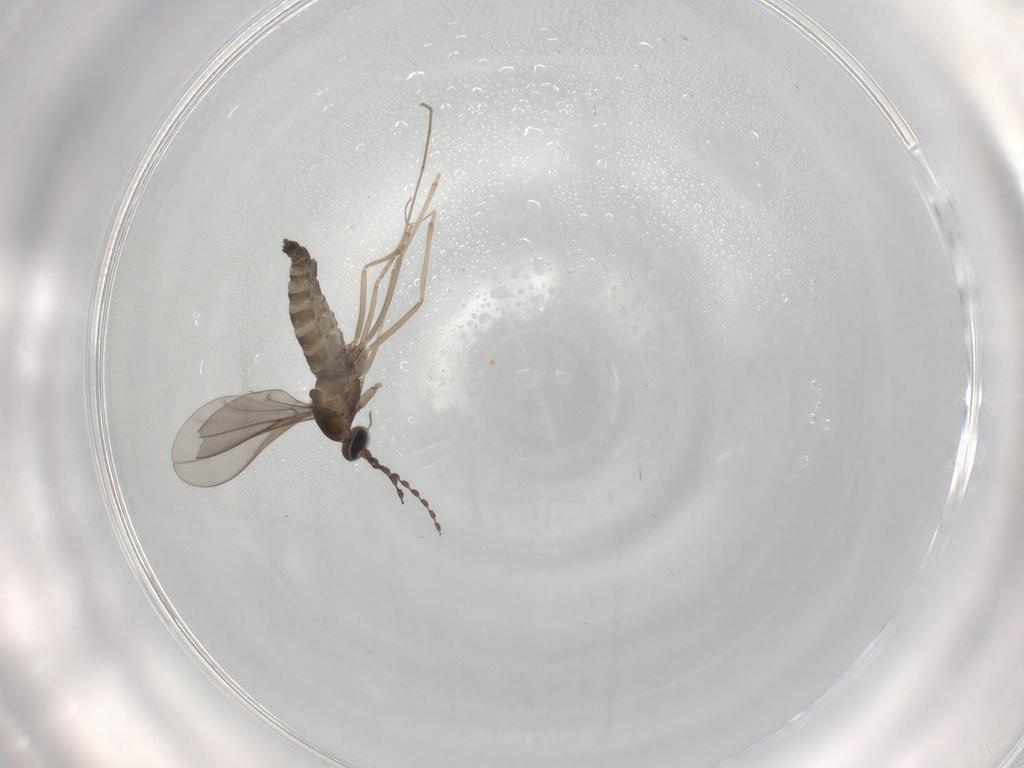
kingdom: Animalia
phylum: Arthropoda
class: Insecta
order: Diptera
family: Cecidomyiidae
